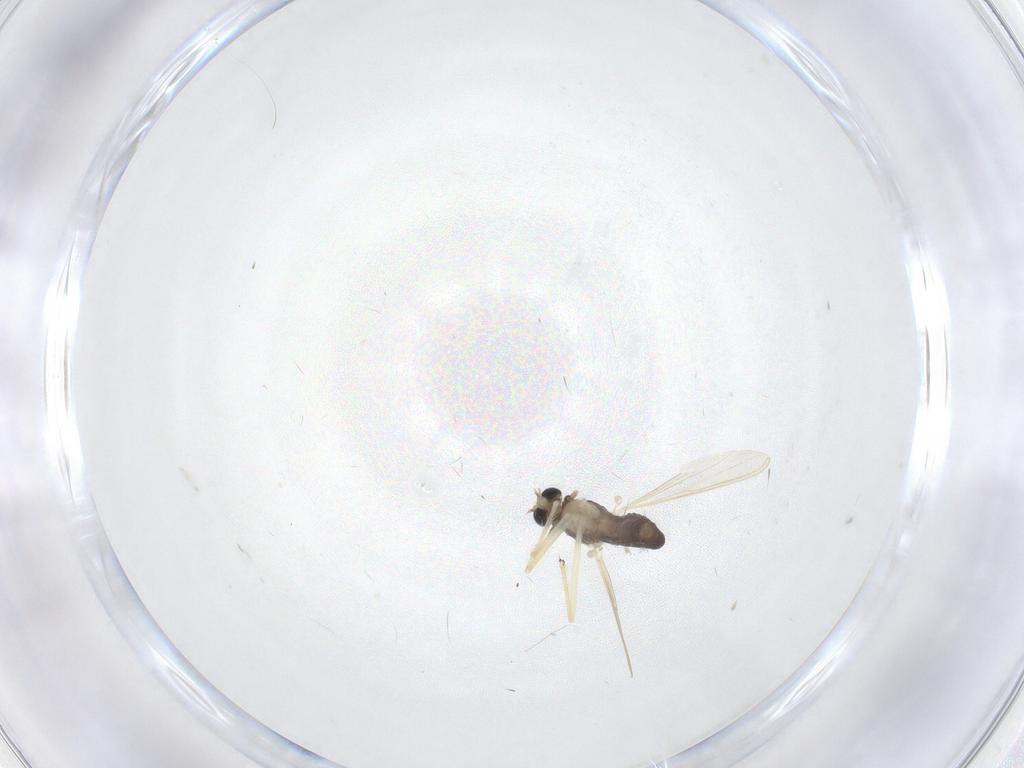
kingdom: Animalia
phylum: Arthropoda
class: Insecta
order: Diptera
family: Chironomidae
